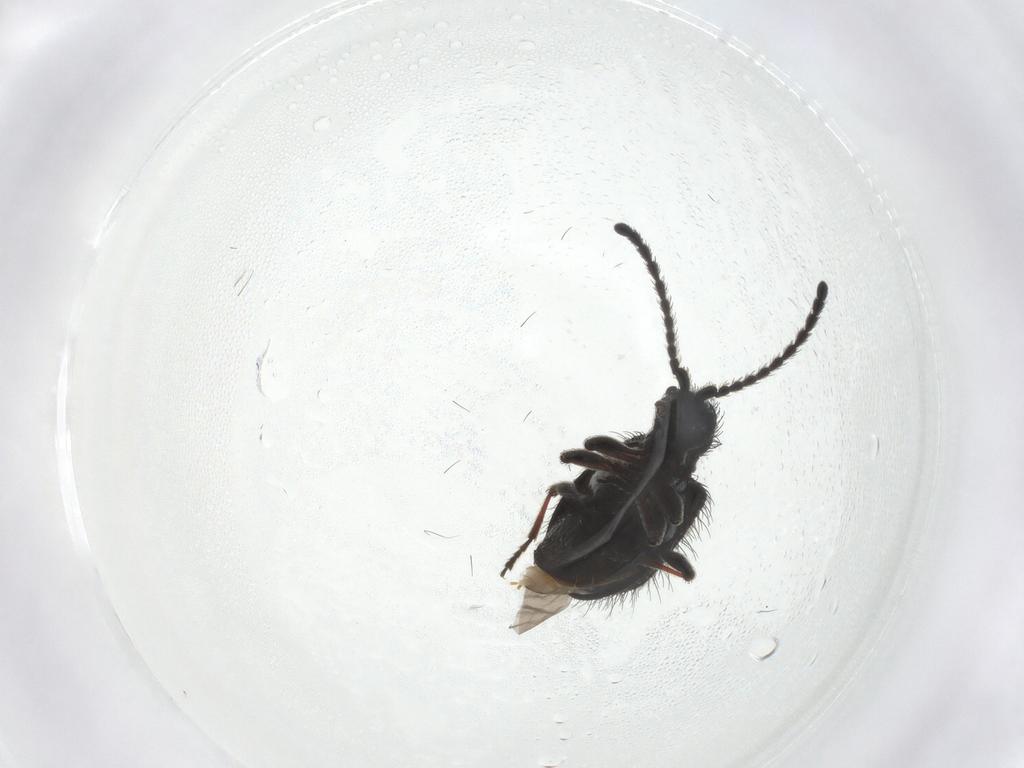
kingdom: Animalia
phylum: Arthropoda
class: Insecta
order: Coleoptera
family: Ptinidae
